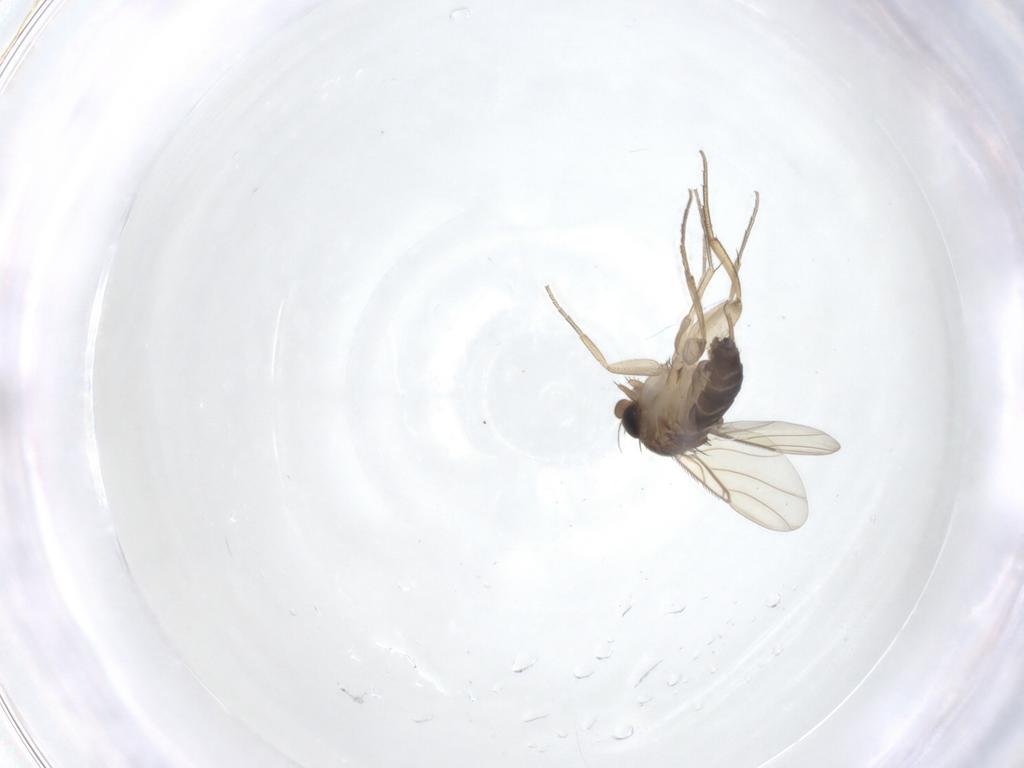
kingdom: Animalia
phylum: Arthropoda
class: Insecta
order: Diptera
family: Phoridae
